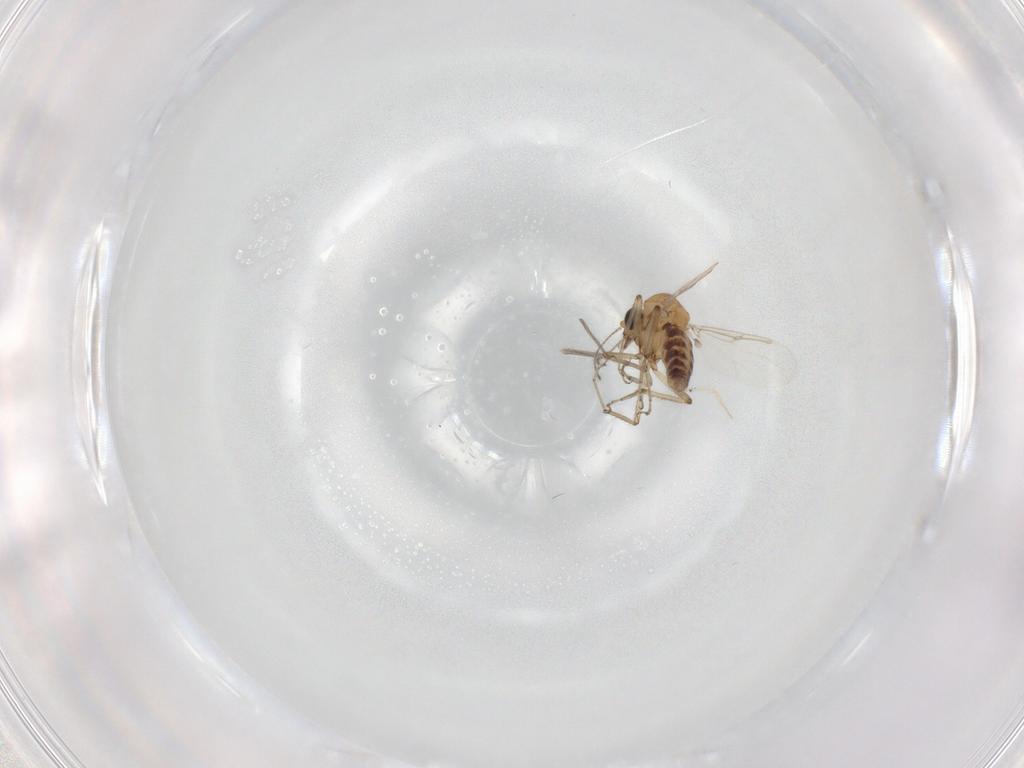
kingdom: Animalia
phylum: Arthropoda
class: Insecta
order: Diptera
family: Ceratopogonidae
